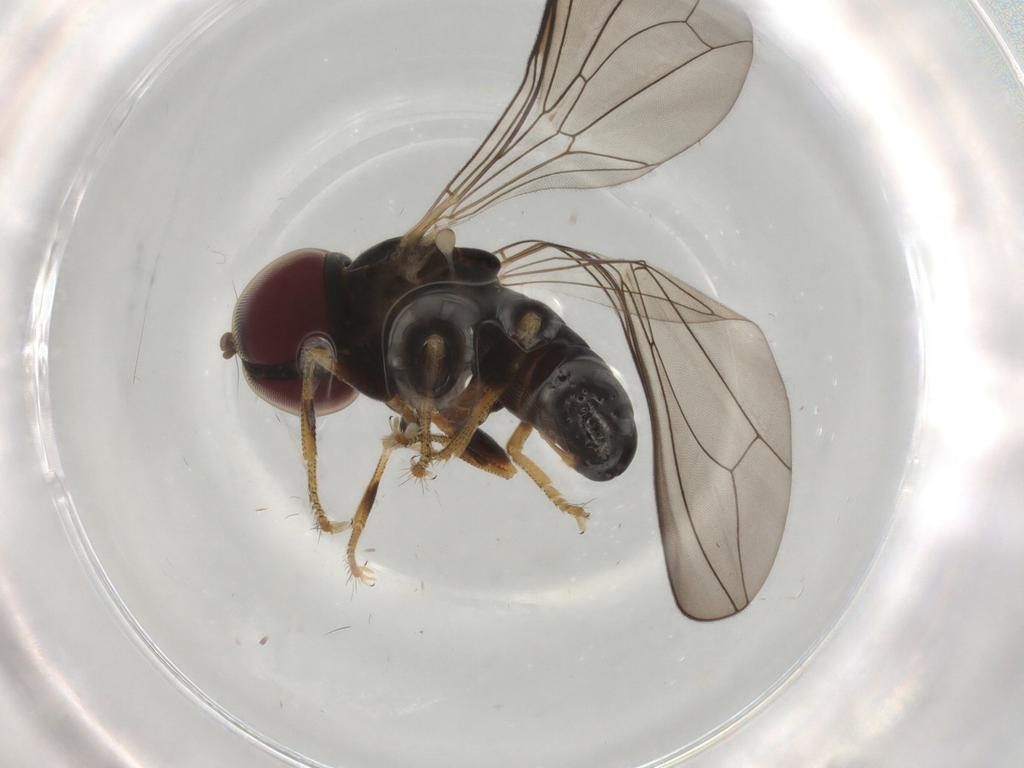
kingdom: Animalia
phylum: Arthropoda
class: Insecta
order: Diptera
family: Pipunculidae
